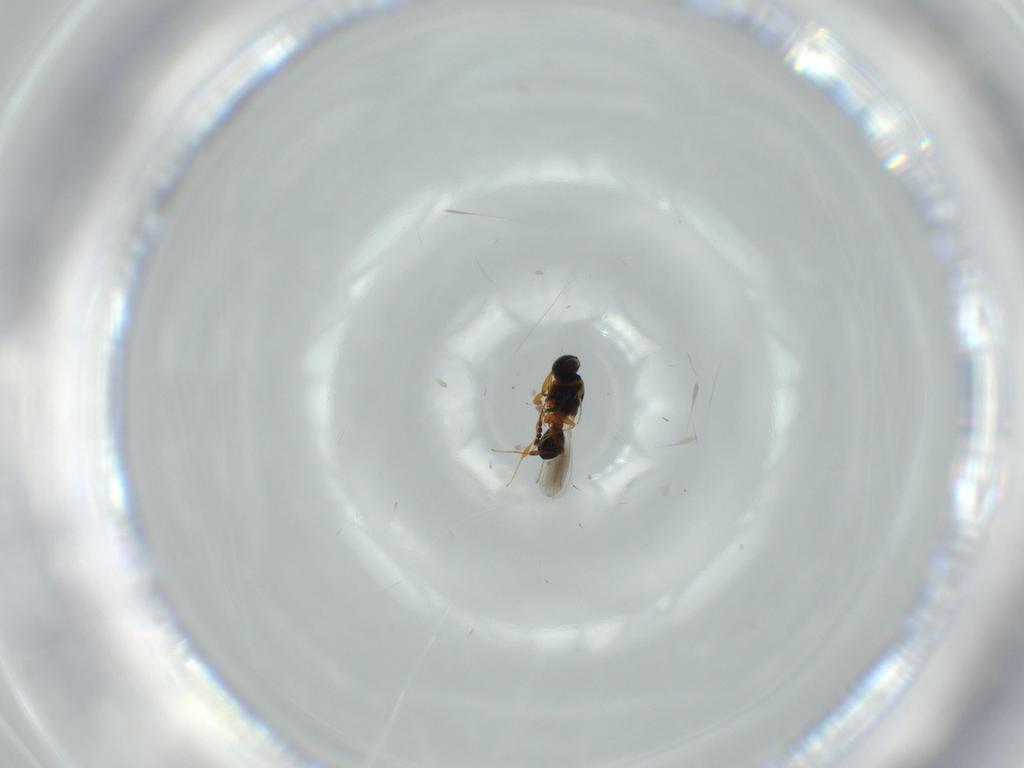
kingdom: Animalia
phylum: Arthropoda
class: Insecta
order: Hymenoptera
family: Platygastridae
